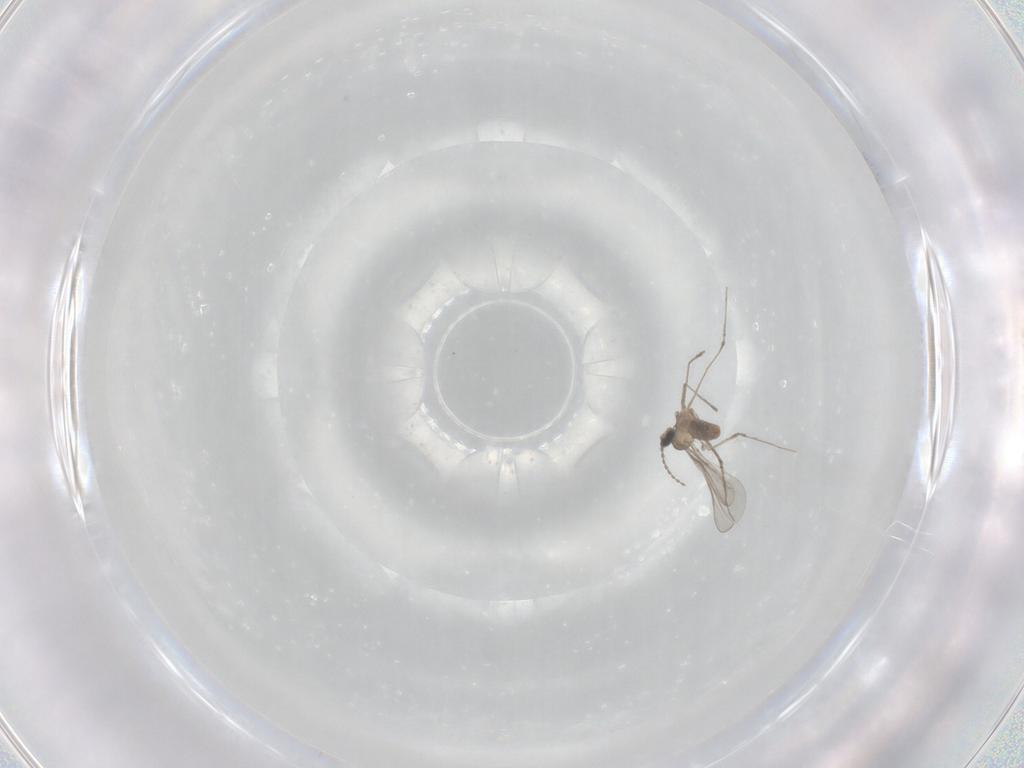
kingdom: Animalia
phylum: Arthropoda
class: Insecta
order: Diptera
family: Cecidomyiidae
